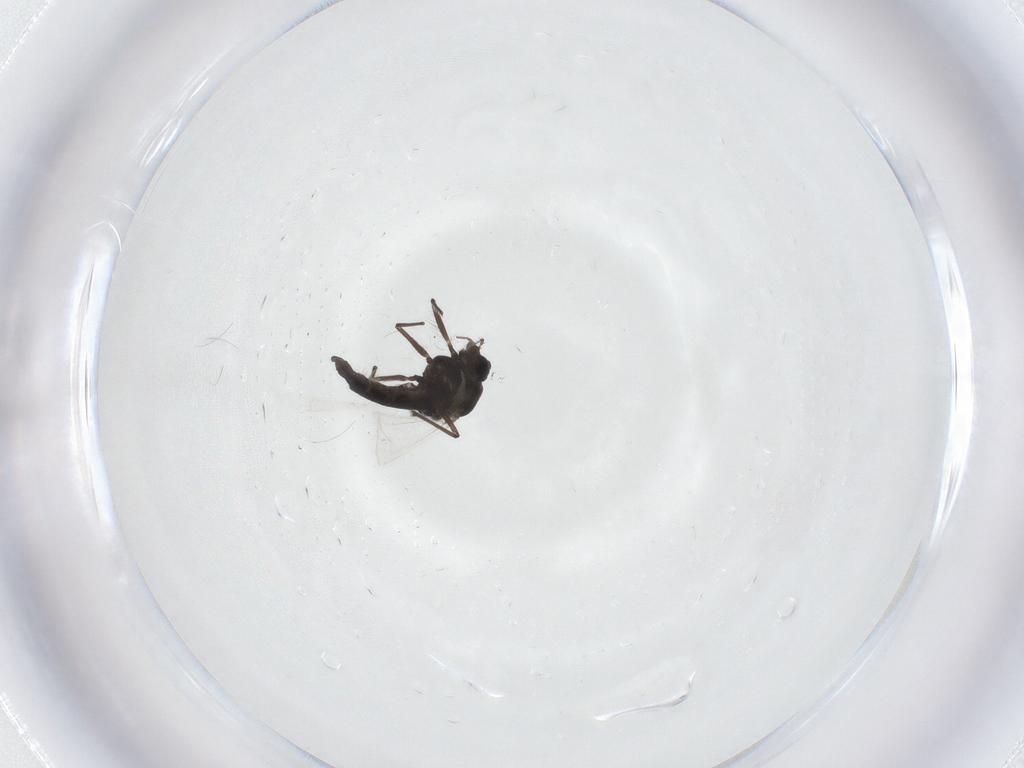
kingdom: Animalia
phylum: Arthropoda
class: Insecta
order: Diptera
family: Chironomidae
